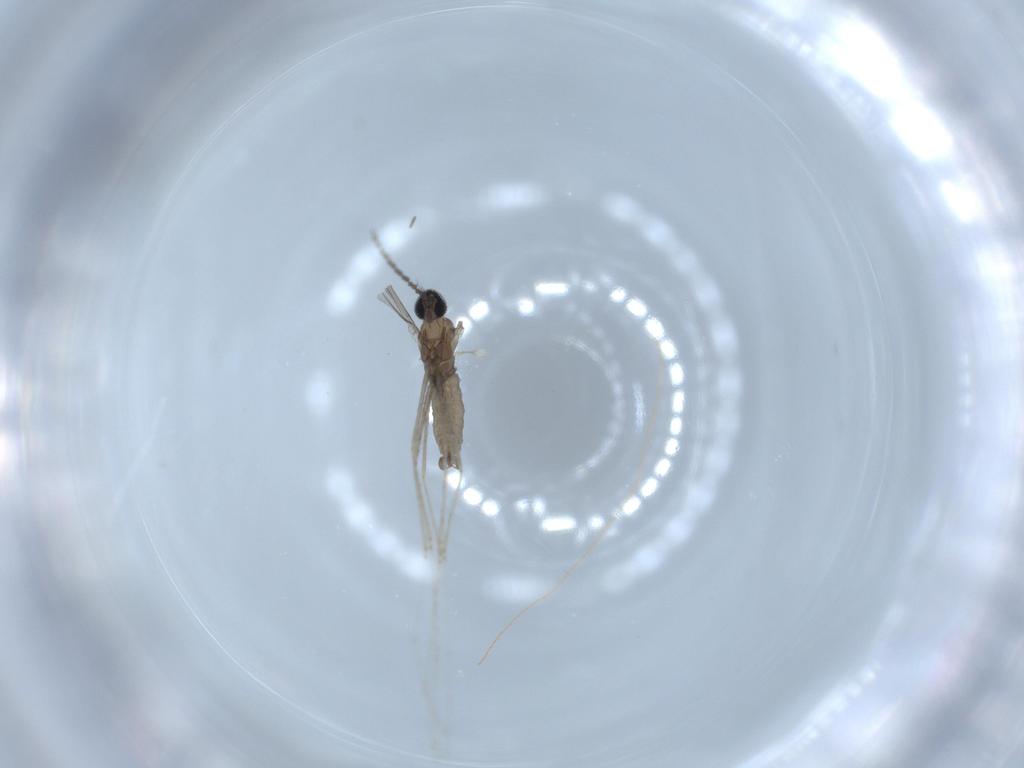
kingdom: Animalia
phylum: Arthropoda
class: Insecta
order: Diptera
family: Cecidomyiidae
